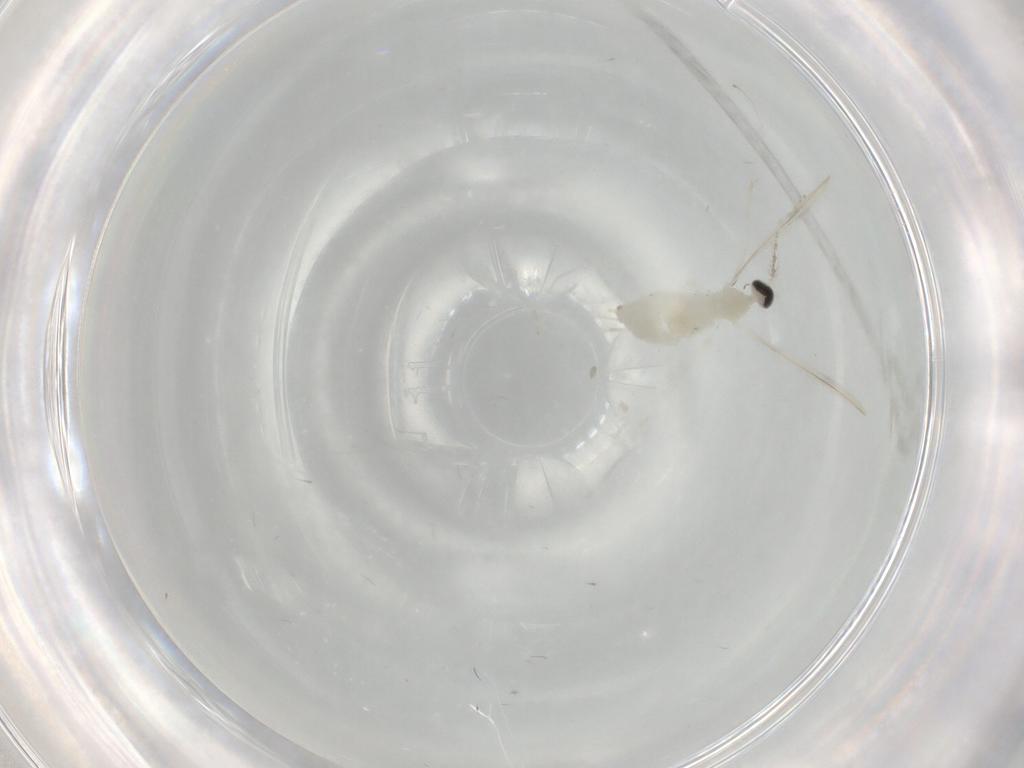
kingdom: Animalia
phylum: Arthropoda
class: Insecta
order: Diptera
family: Cecidomyiidae
